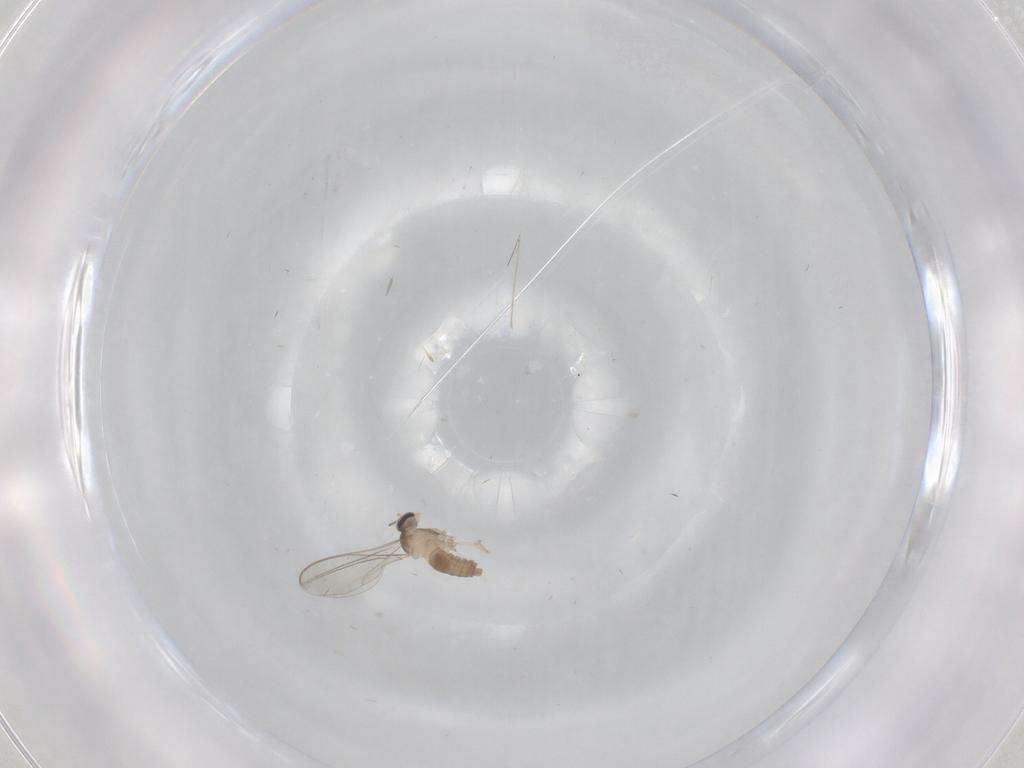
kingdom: Animalia
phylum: Arthropoda
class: Insecta
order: Diptera
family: Cecidomyiidae
